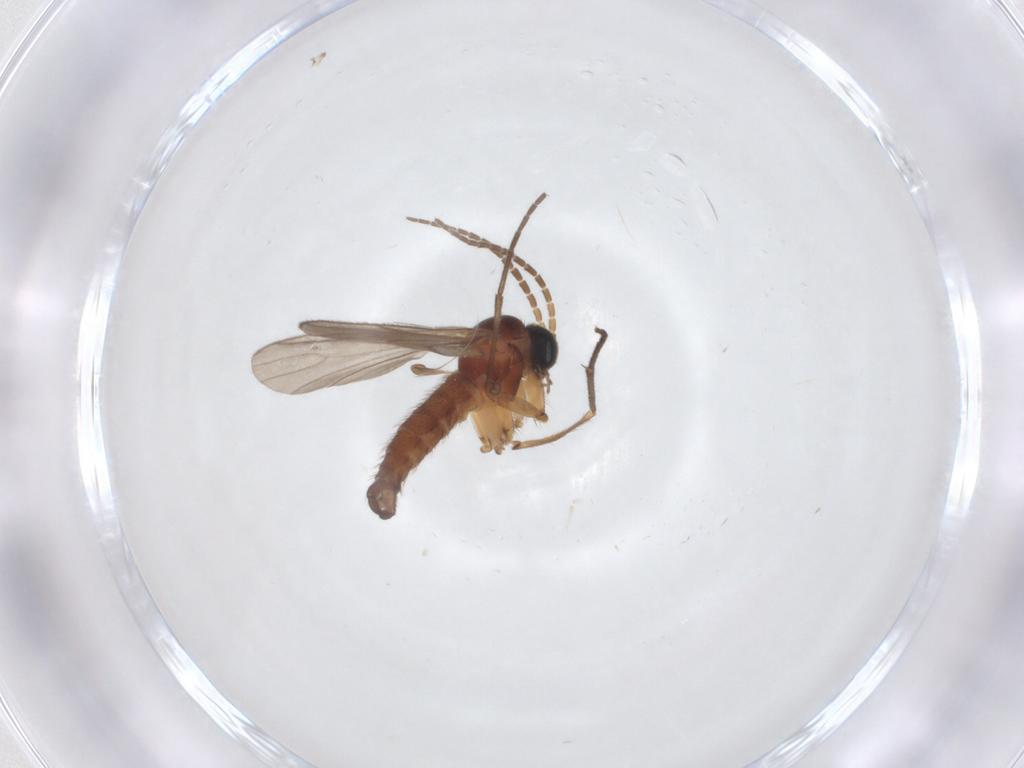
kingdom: Animalia
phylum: Arthropoda
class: Insecta
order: Diptera
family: Sciaridae
